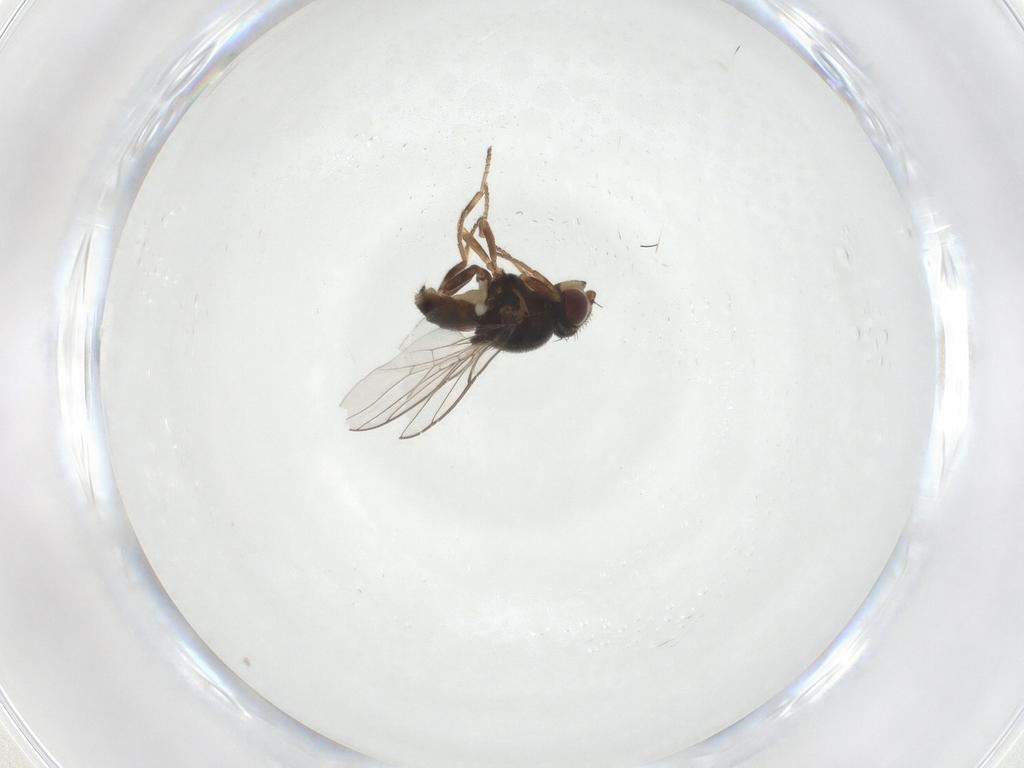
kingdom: Animalia
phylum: Arthropoda
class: Insecta
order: Diptera
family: Chloropidae
